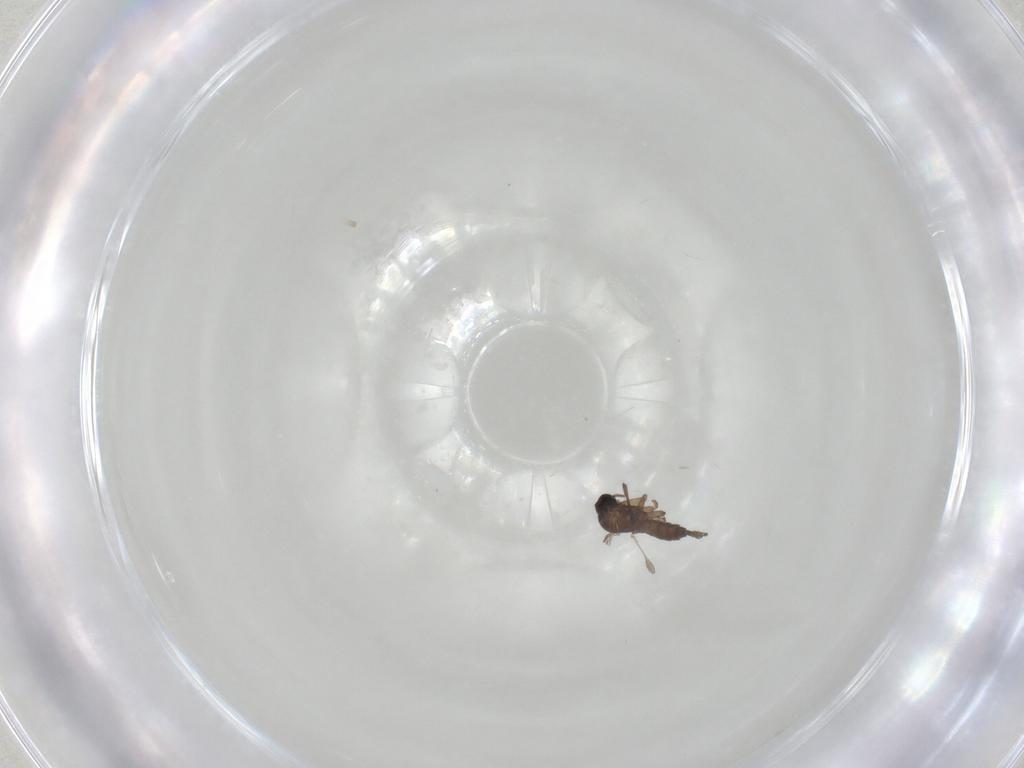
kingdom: Animalia
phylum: Arthropoda
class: Insecta
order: Diptera
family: Sciaridae
